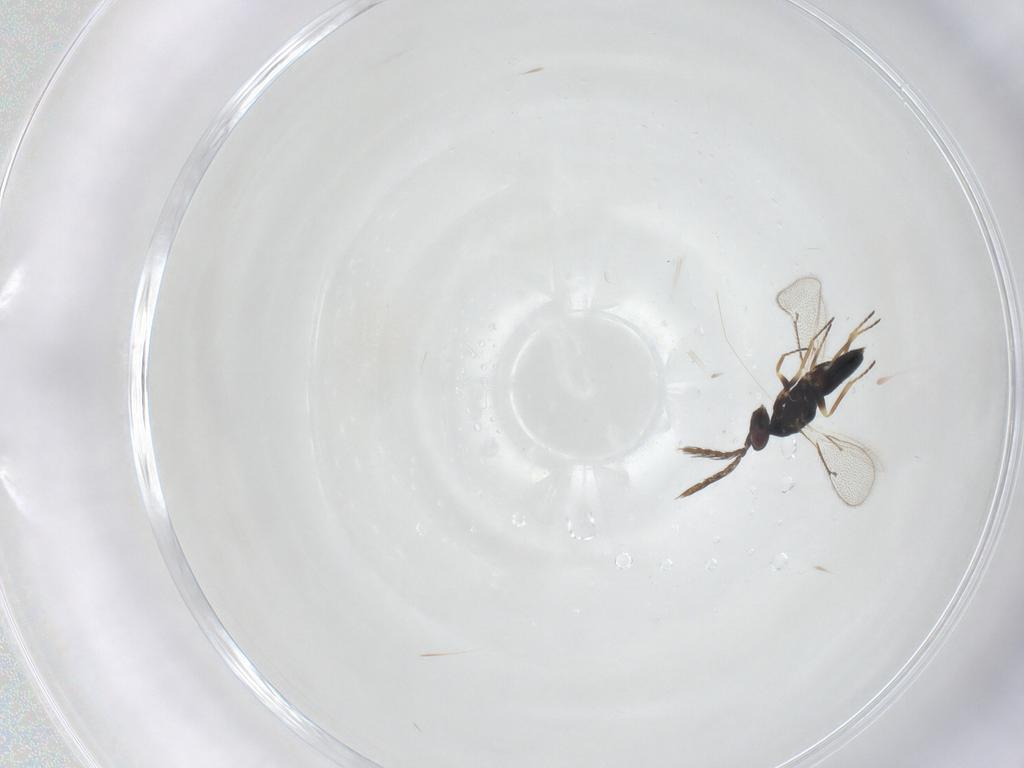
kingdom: Animalia
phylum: Arthropoda
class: Insecta
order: Hymenoptera
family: Eulophidae
